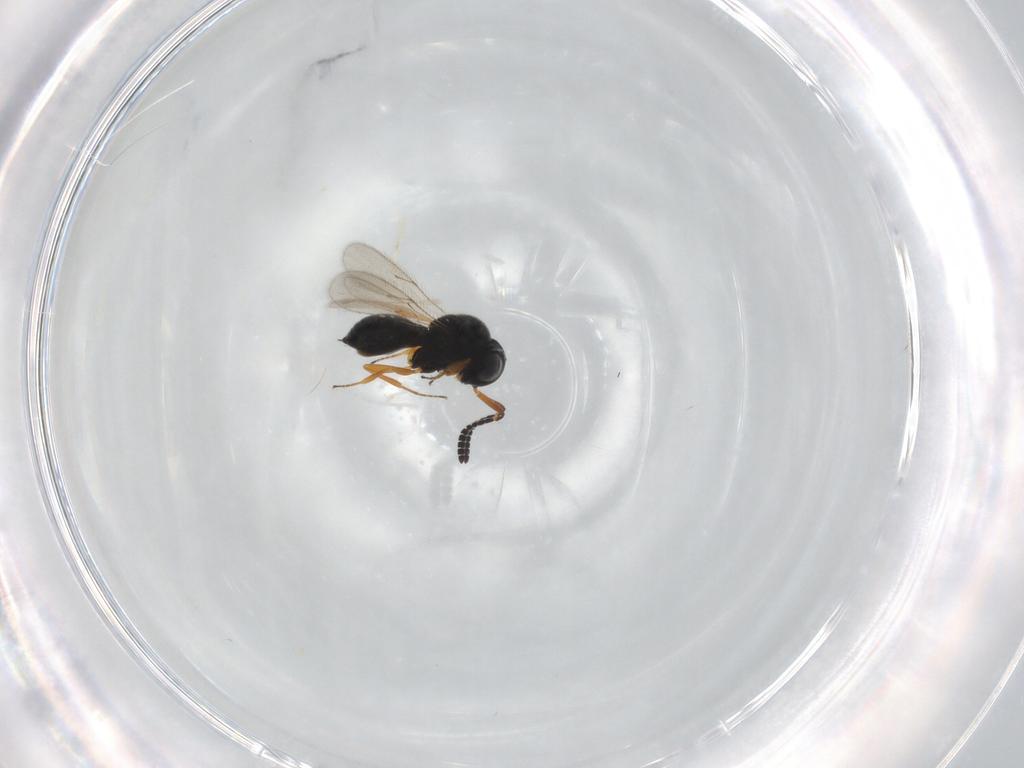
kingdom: Animalia
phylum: Arthropoda
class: Insecta
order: Hymenoptera
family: Scelionidae
